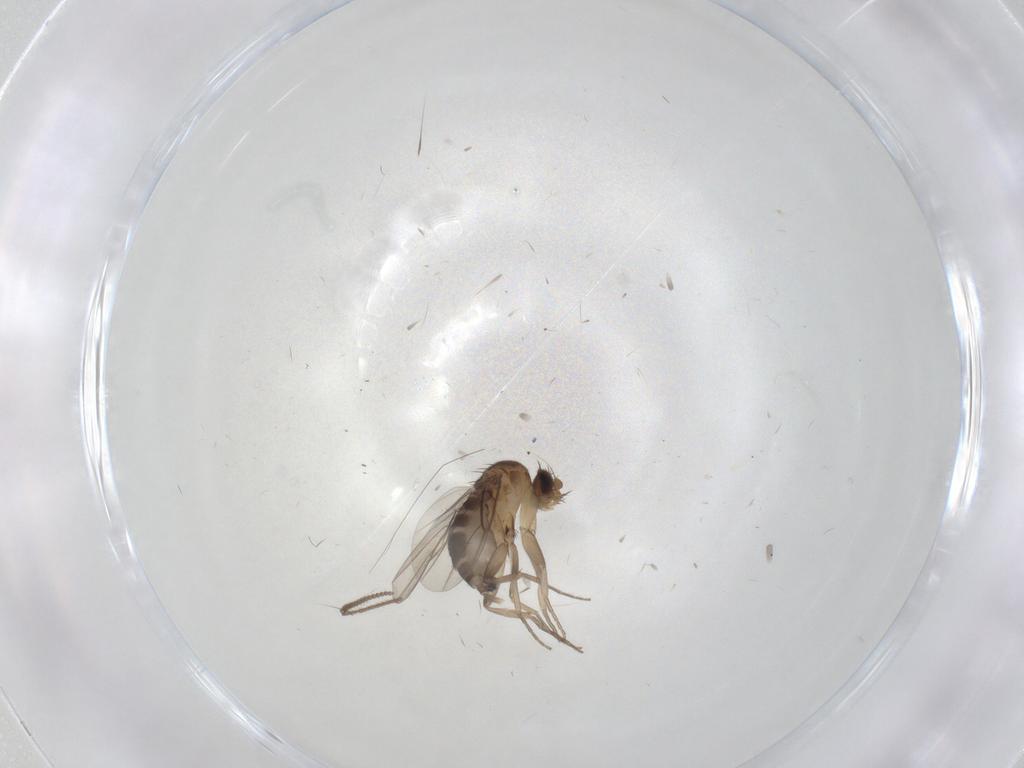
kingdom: Animalia
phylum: Arthropoda
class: Insecta
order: Diptera
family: Phoridae
